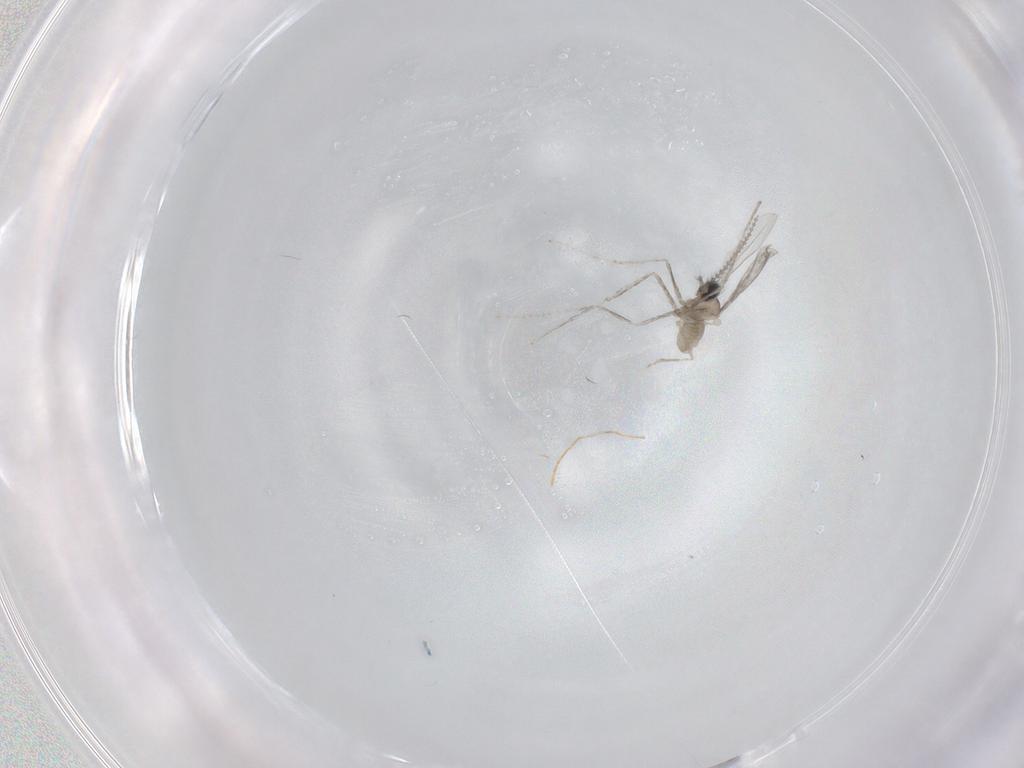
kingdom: Animalia
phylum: Arthropoda
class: Insecta
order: Diptera
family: Cecidomyiidae
